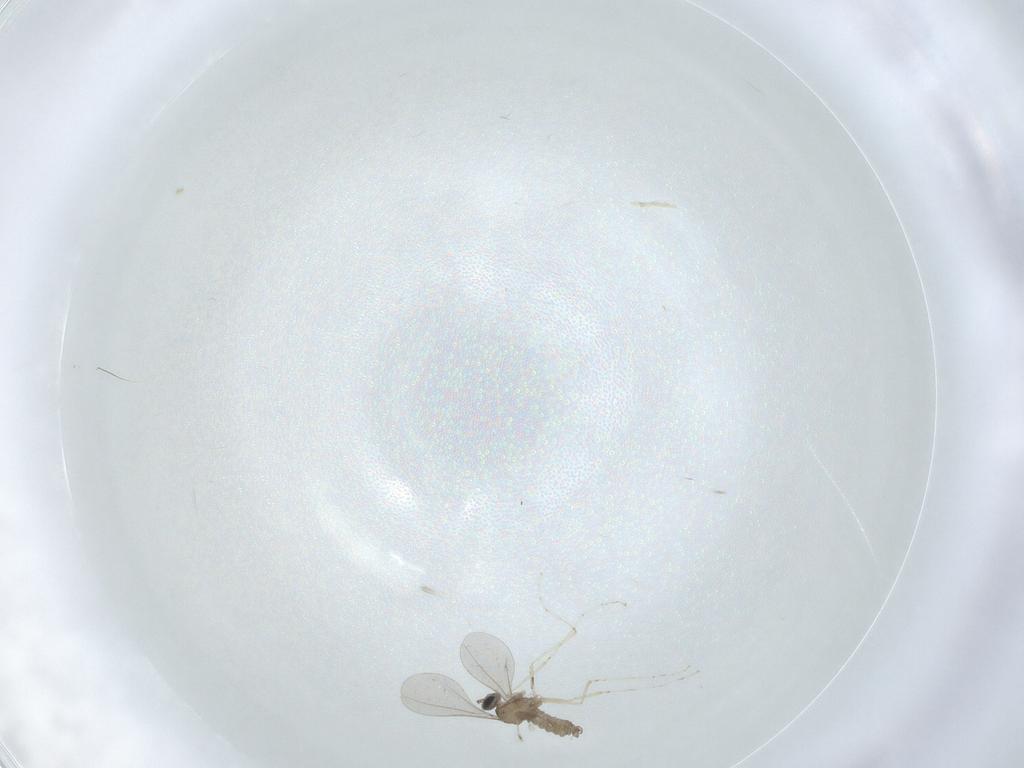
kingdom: Animalia
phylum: Arthropoda
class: Insecta
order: Diptera
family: Cecidomyiidae
